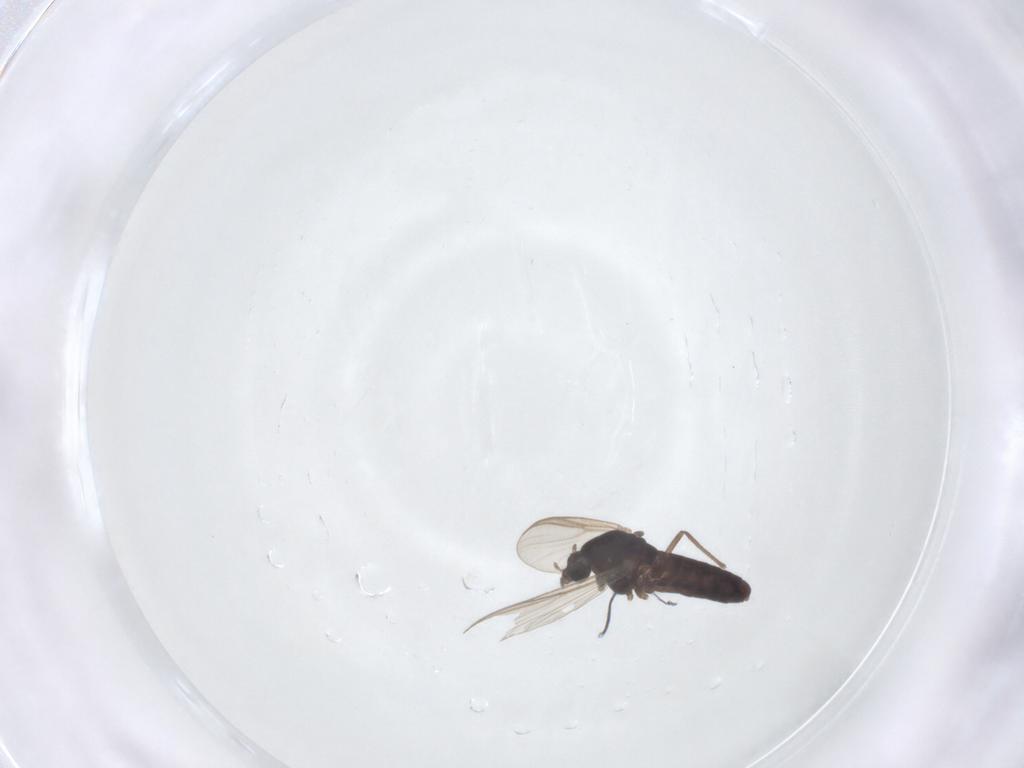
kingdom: Animalia
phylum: Arthropoda
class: Insecta
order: Diptera
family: Chironomidae
